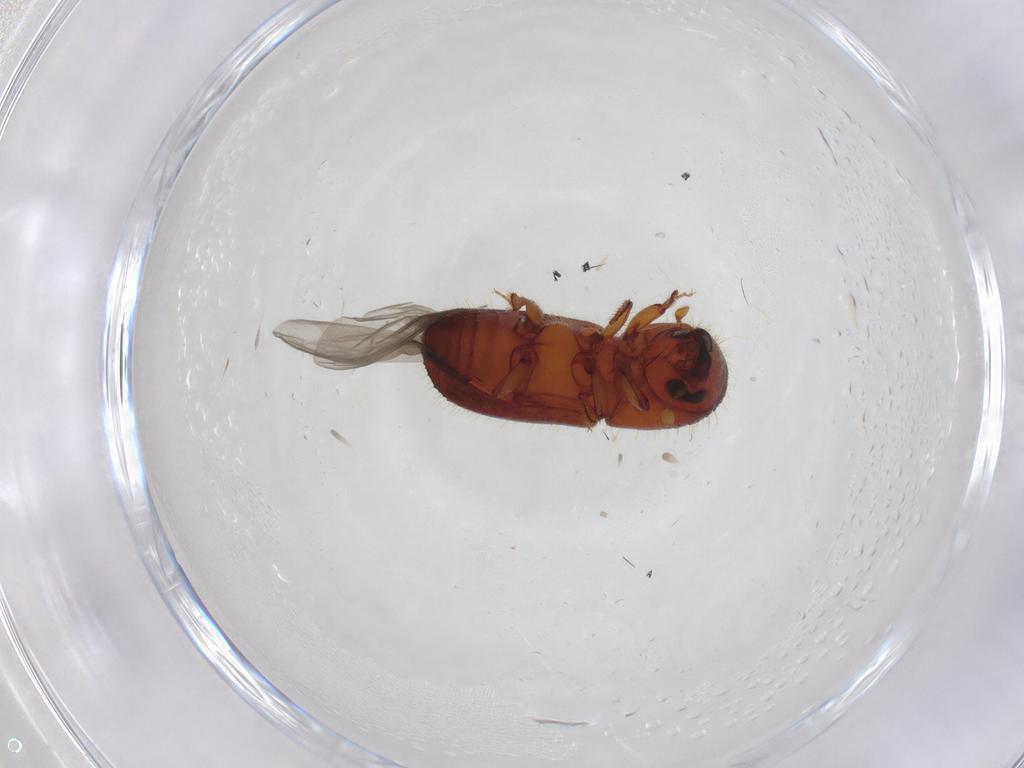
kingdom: Animalia
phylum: Arthropoda
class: Insecta
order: Coleoptera
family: Curculionidae
